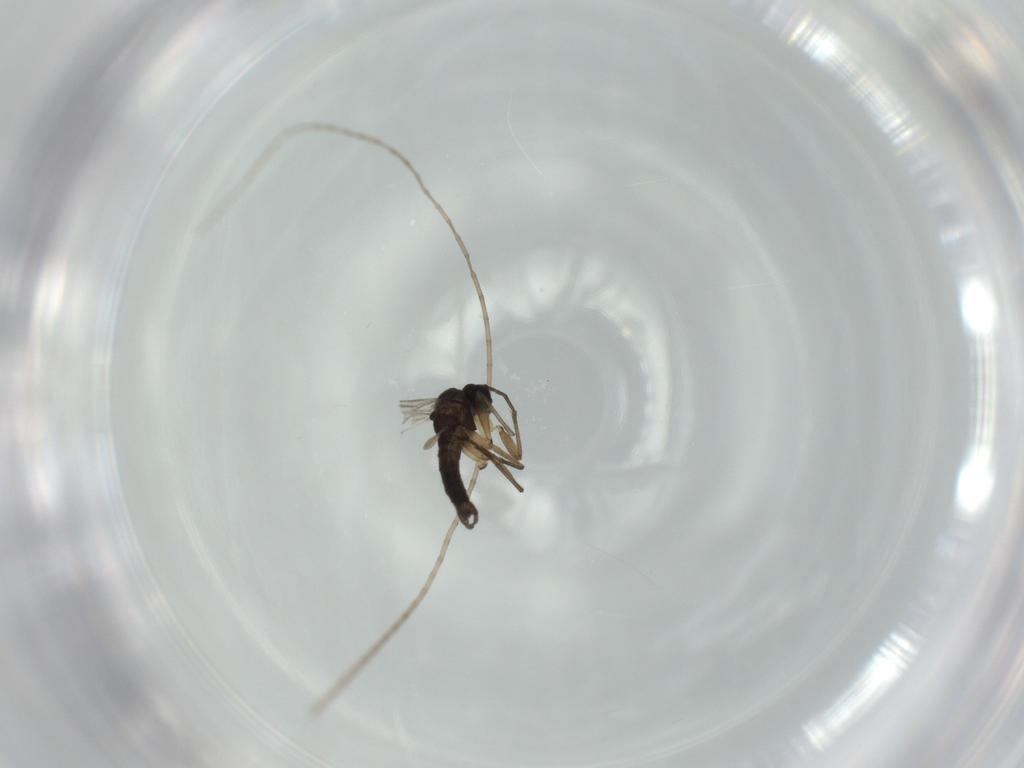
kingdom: Animalia
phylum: Arthropoda
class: Insecta
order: Diptera
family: Sciaridae
